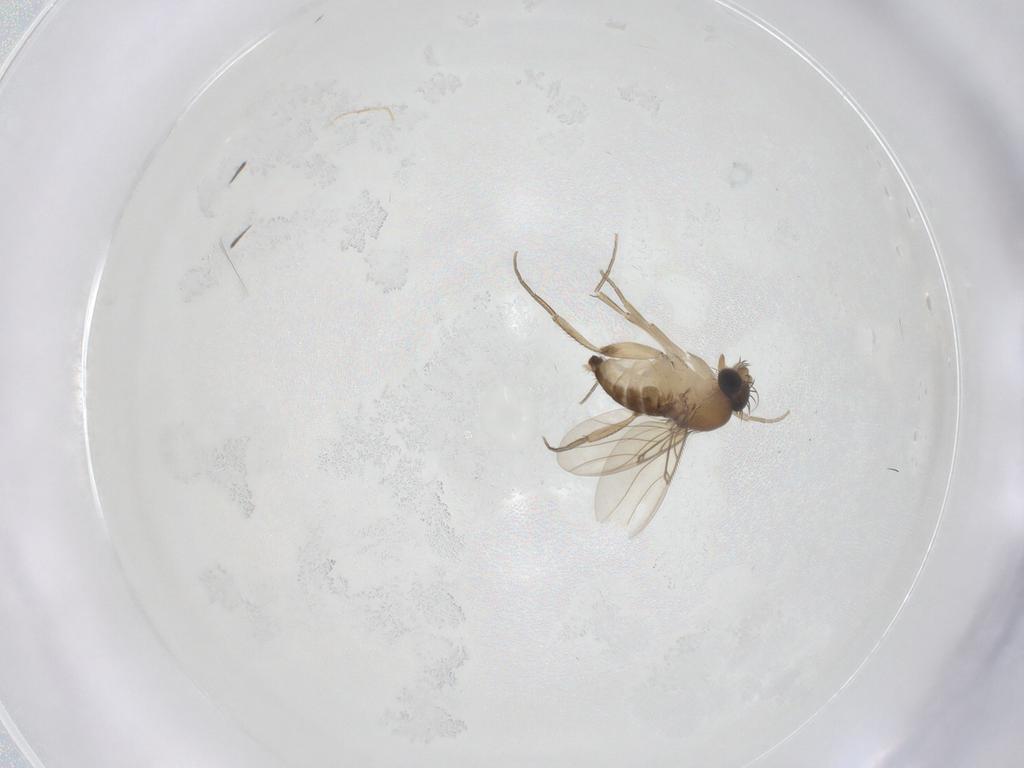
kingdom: Animalia
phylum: Arthropoda
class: Insecta
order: Diptera
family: Phoridae
